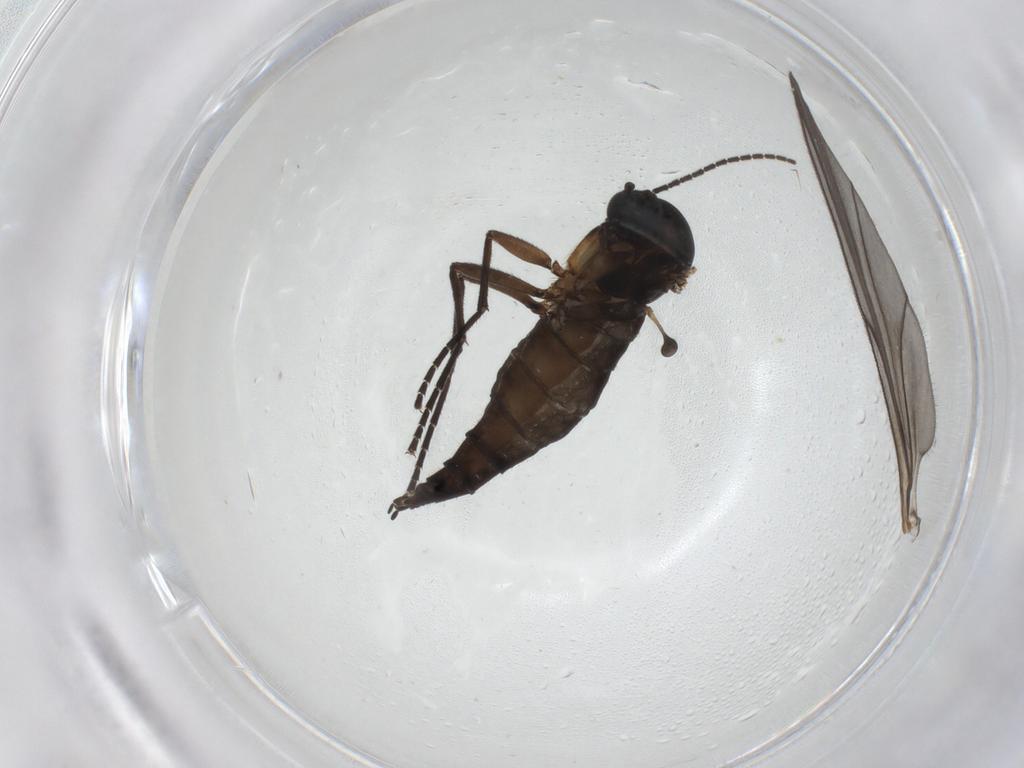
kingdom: Animalia
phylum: Arthropoda
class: Insecta
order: Diptera
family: Sciaridae
